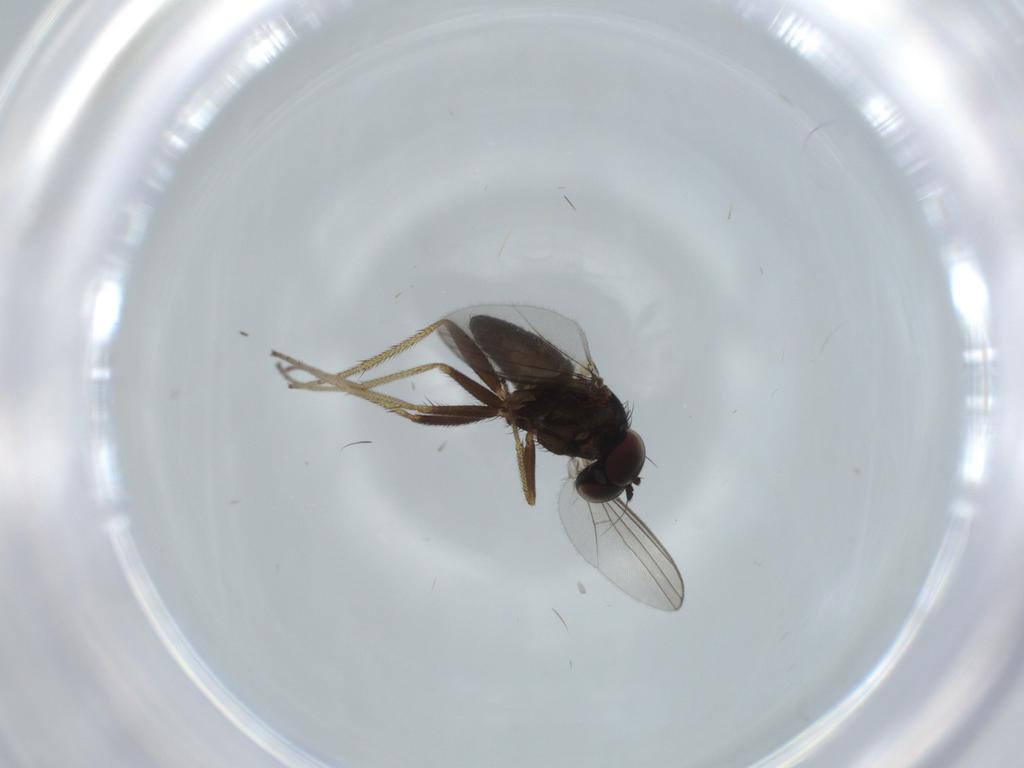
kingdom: Animalia
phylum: Arthropoda
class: Insecta
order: Diptera
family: Dolichopodidae
